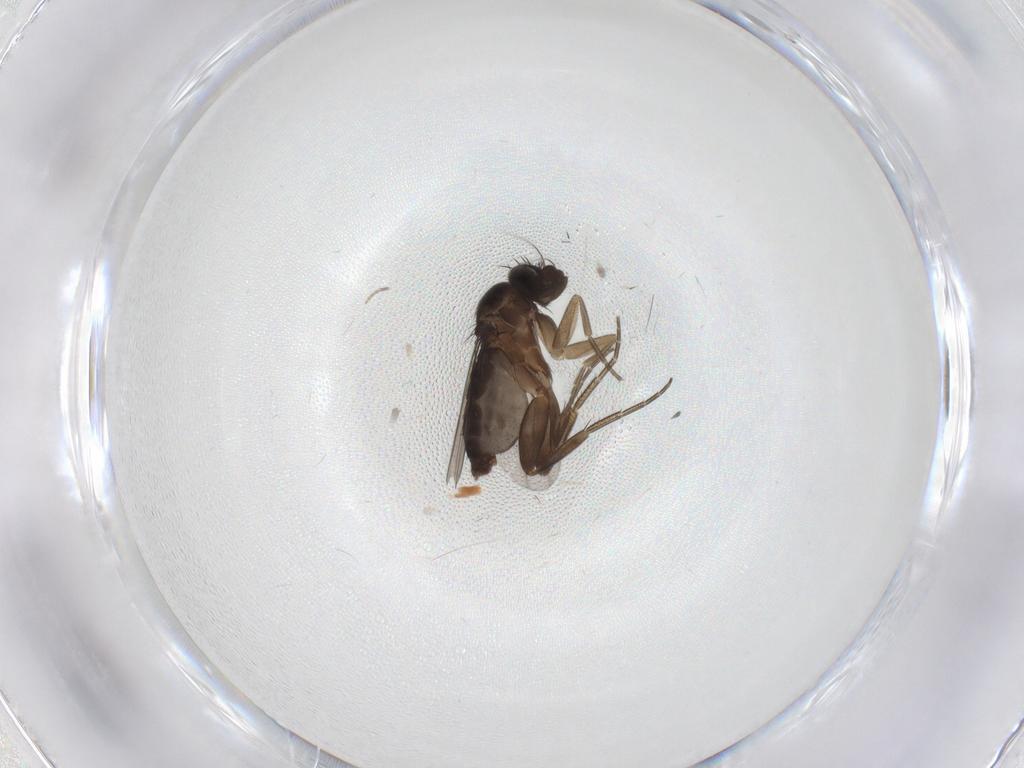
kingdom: Animalia
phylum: Arthropoda
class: Insecta
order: Diptera
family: Phoridae
